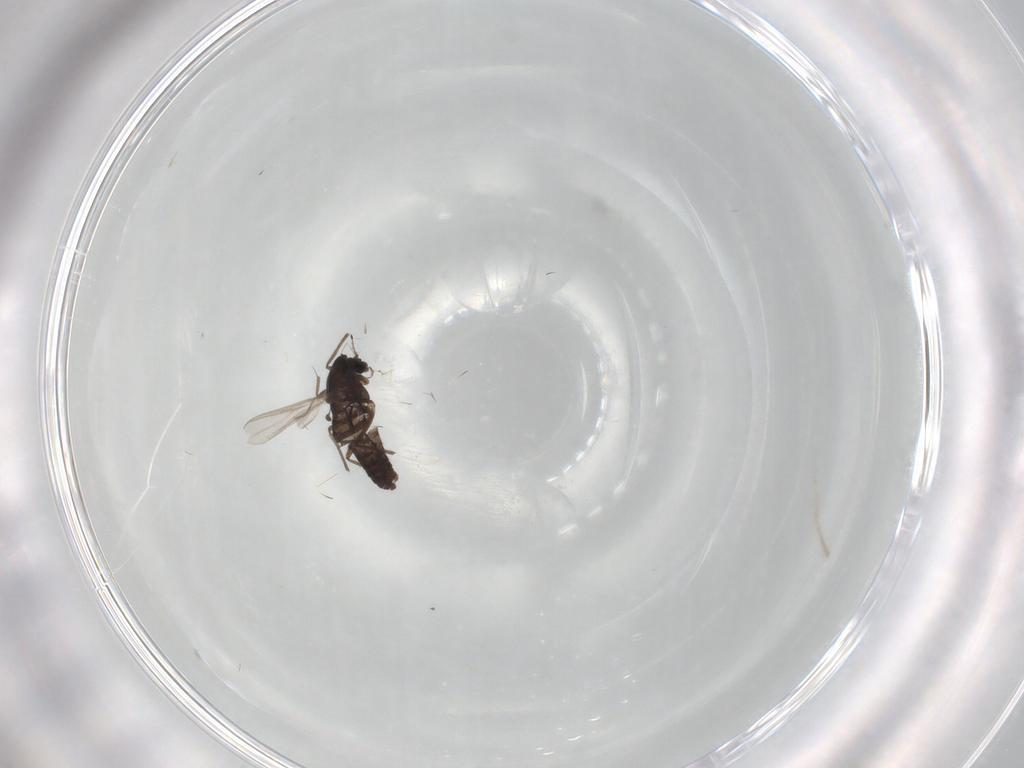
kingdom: Animalia
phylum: Arthropoda
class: Insecta
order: Diptera
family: Chironomidae
